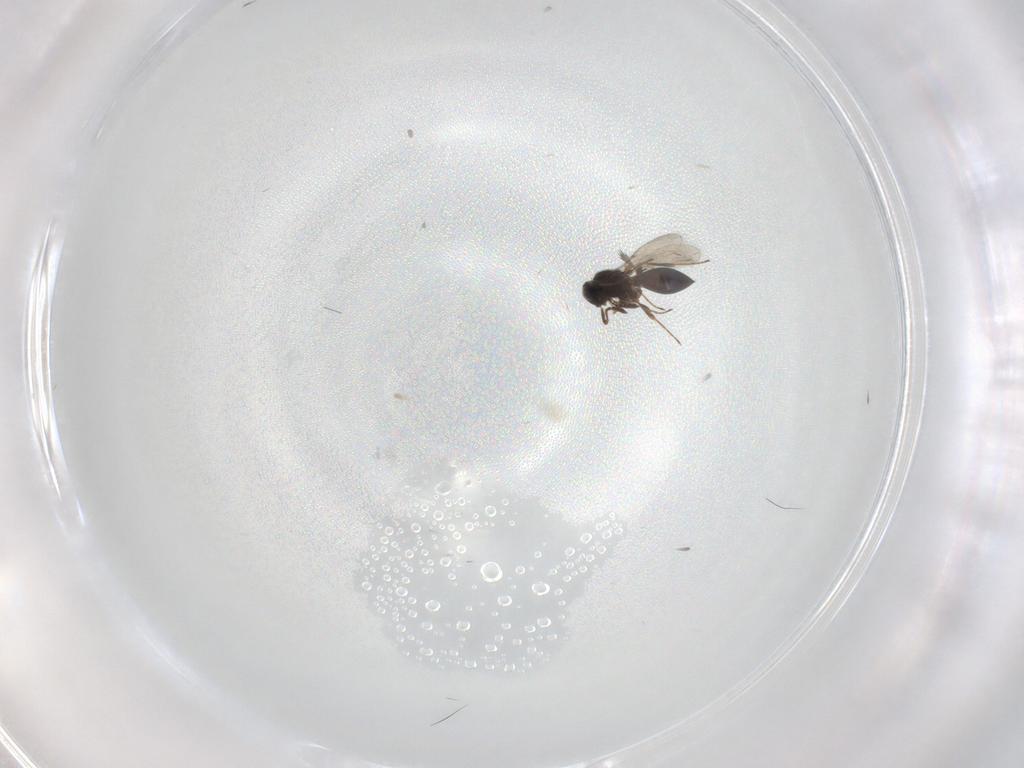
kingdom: Animalia
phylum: Arthropoda
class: Insecta
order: Hymenoptera
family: Platygastridae
